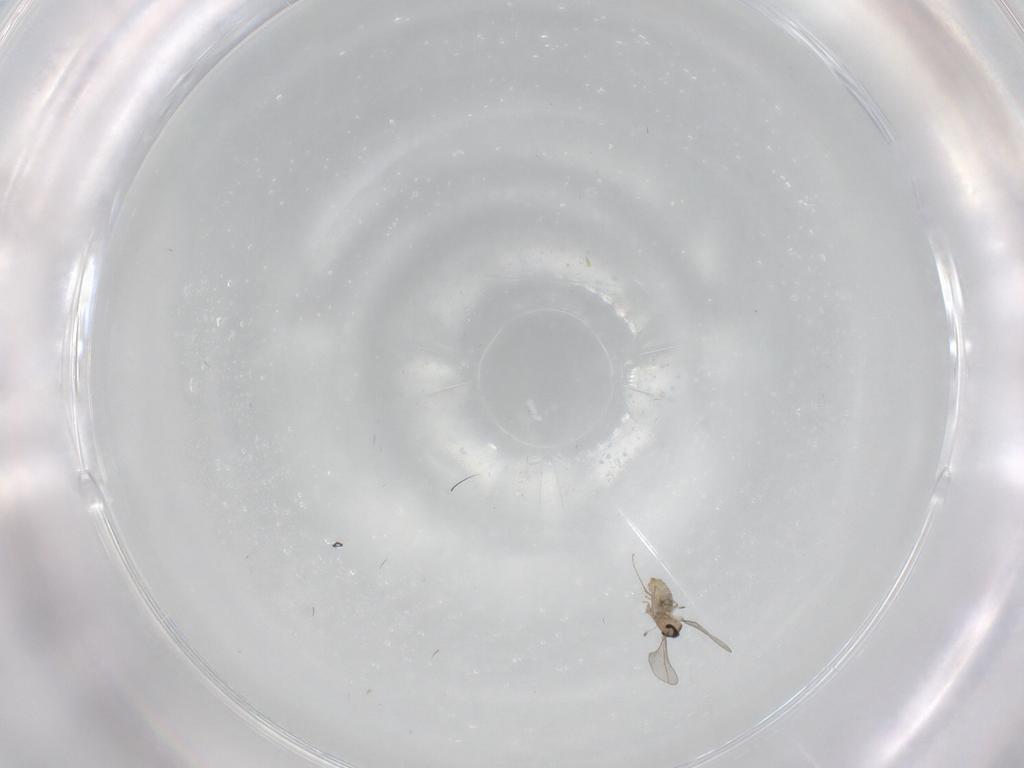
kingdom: Animalia
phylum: Arthropoda
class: Insecta
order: Diptera
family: Cecidomyiidae
